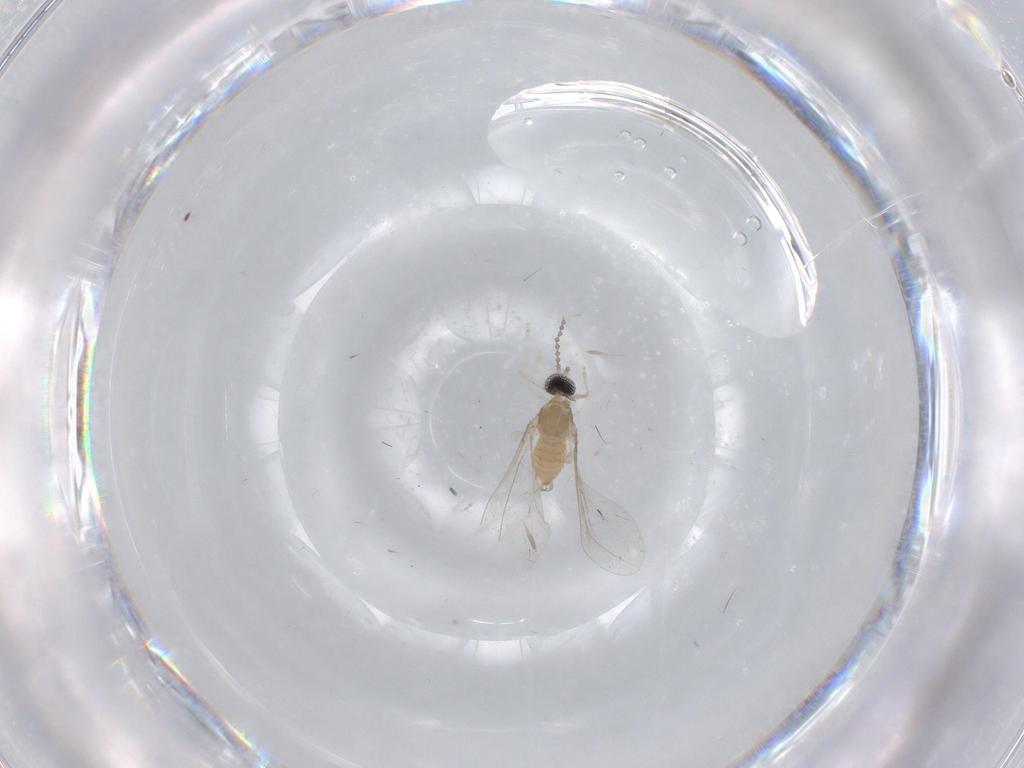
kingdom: Animalia
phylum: Arthropoda
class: Insecta
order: Diptera
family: Cecidomyiidae
